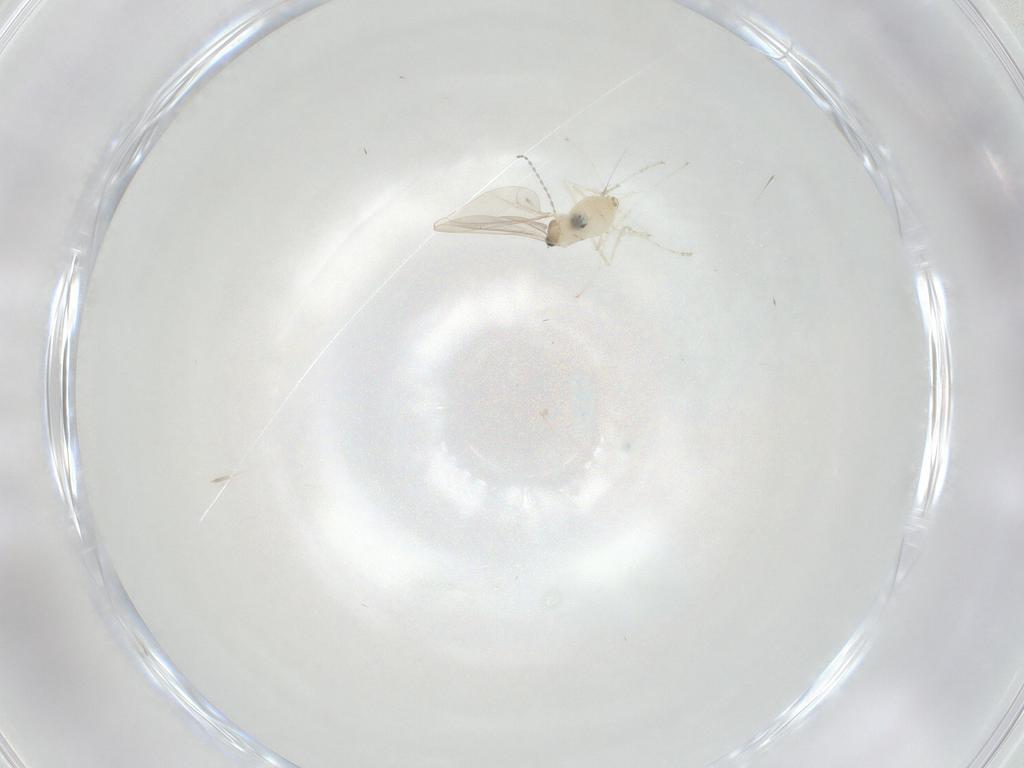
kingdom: Animalia
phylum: Arthropoda
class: Insecta
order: Diptera
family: Cecidomyiidae
